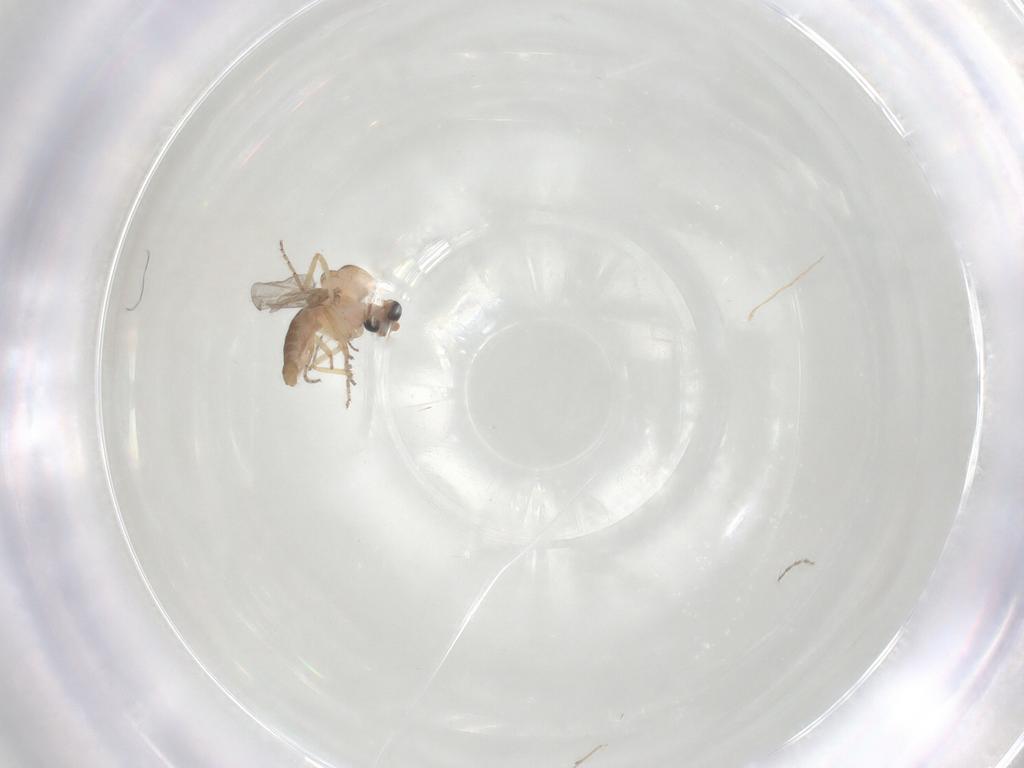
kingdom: Animalia
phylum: Arthropoda
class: Insecta
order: Diptera
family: Ceratopogonidae
